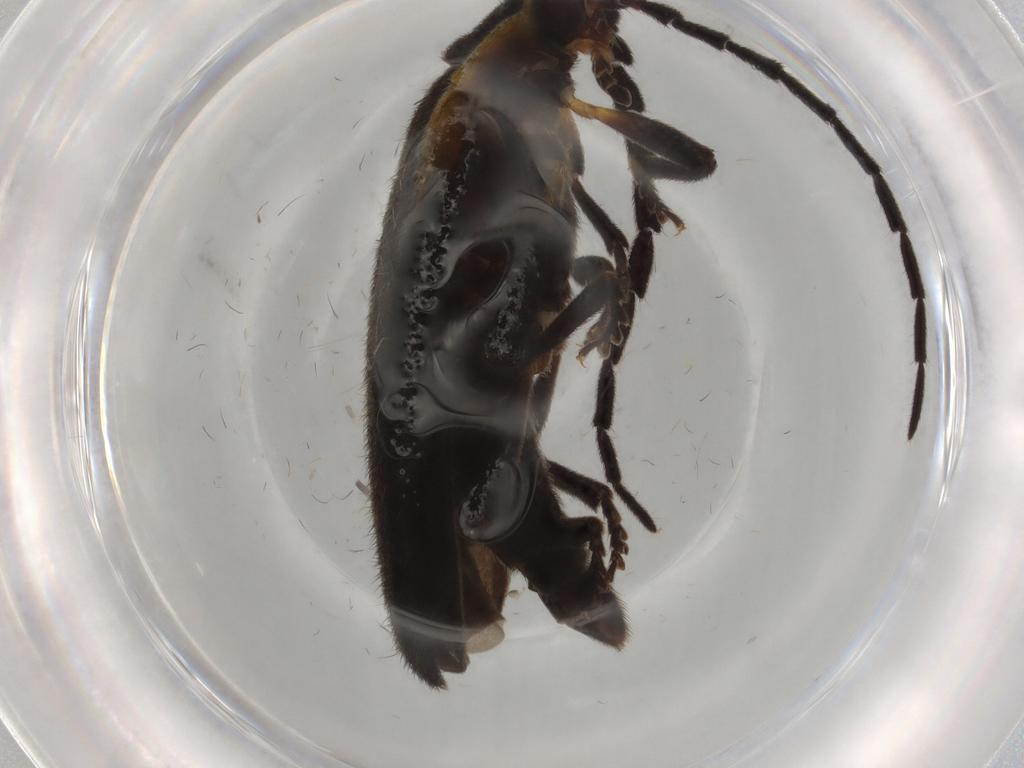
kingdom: Animalia
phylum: Arthropoda
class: Insecta
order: Coleoptera
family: Lycidae
